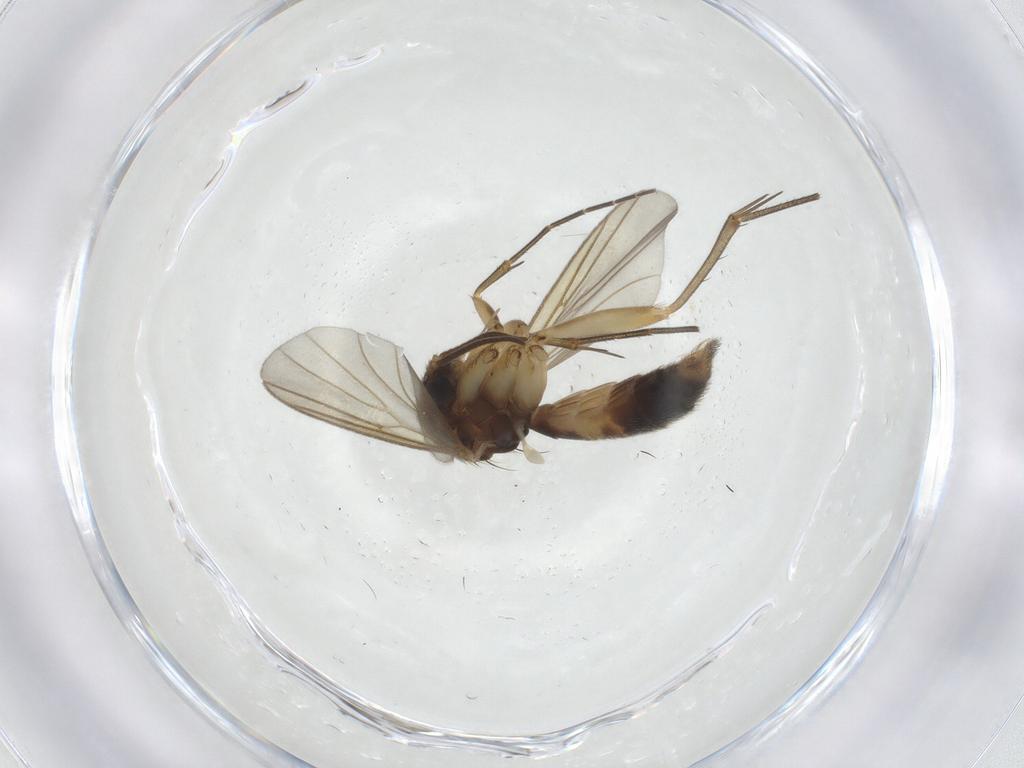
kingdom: Animalia
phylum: Arthropoda
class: Insecta
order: Diptera
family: Mycetophilidae
